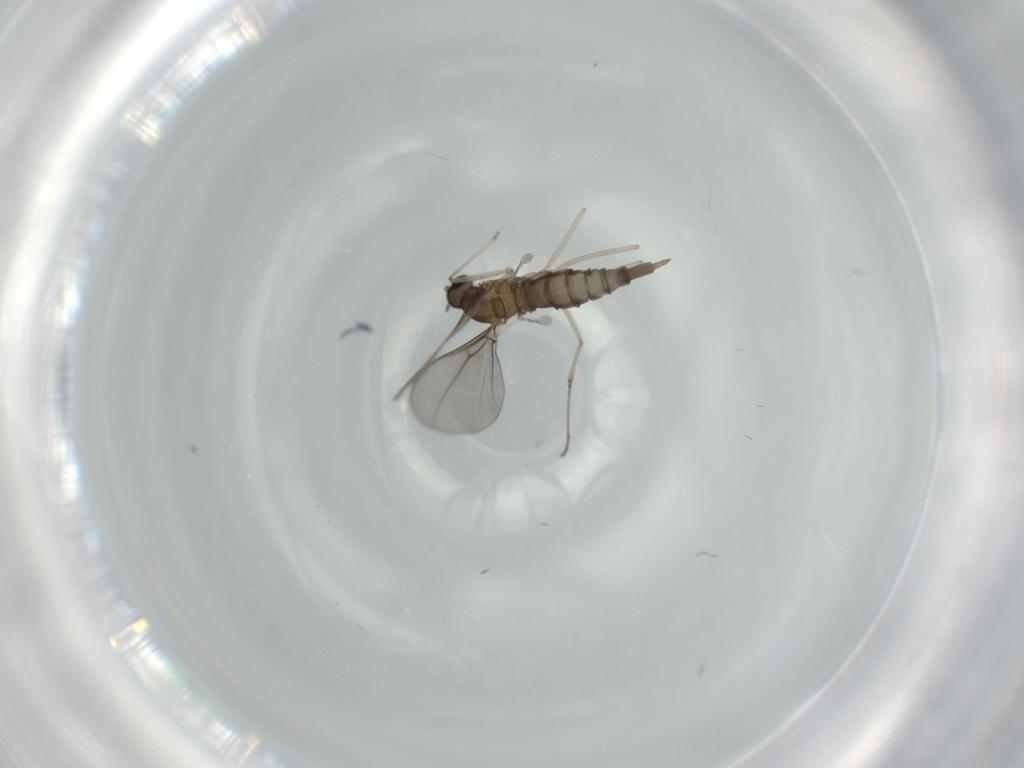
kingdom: Animalia
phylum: Arthropoda
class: Insecta
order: Diptera
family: Cecidomyiidae
